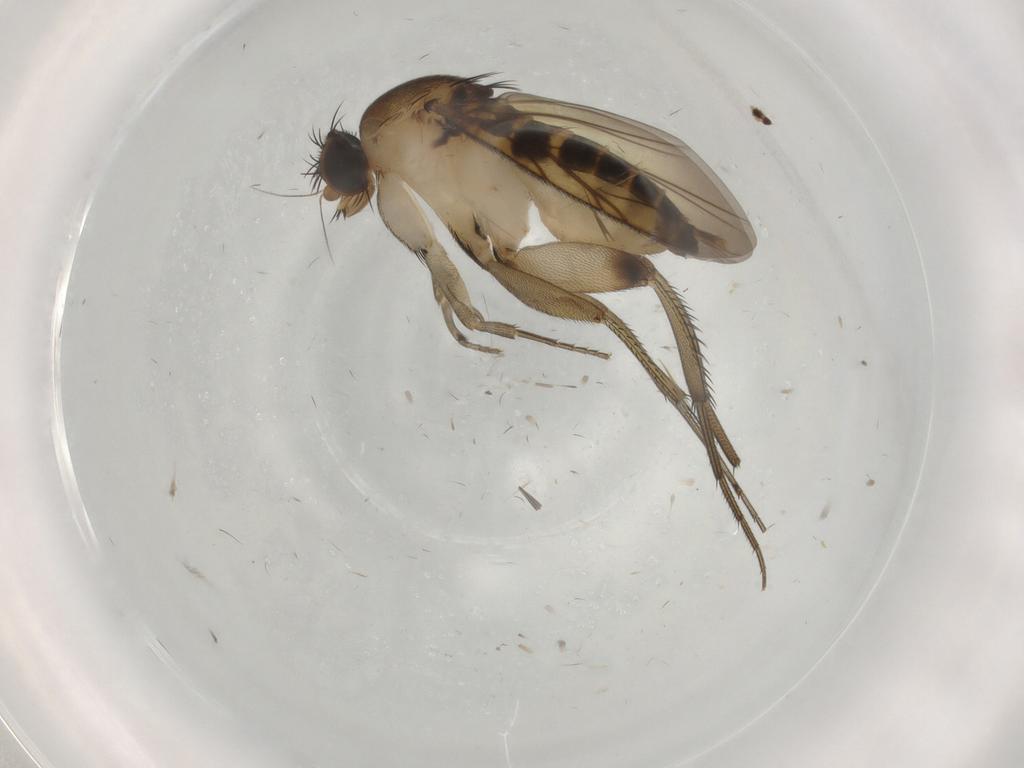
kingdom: Animalia
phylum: Arthropoda
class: Insecta
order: Diptera
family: Phoridae
